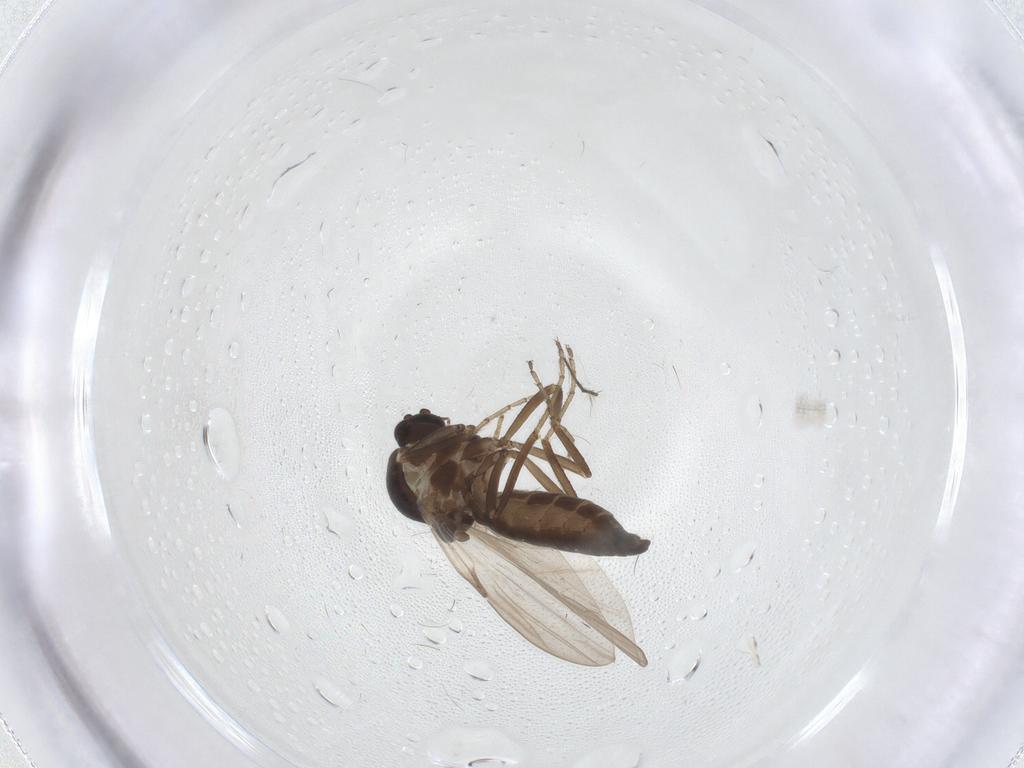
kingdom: Animalia
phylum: Arthropoda
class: Insecta
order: Diptera
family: Ceratopogonidae
